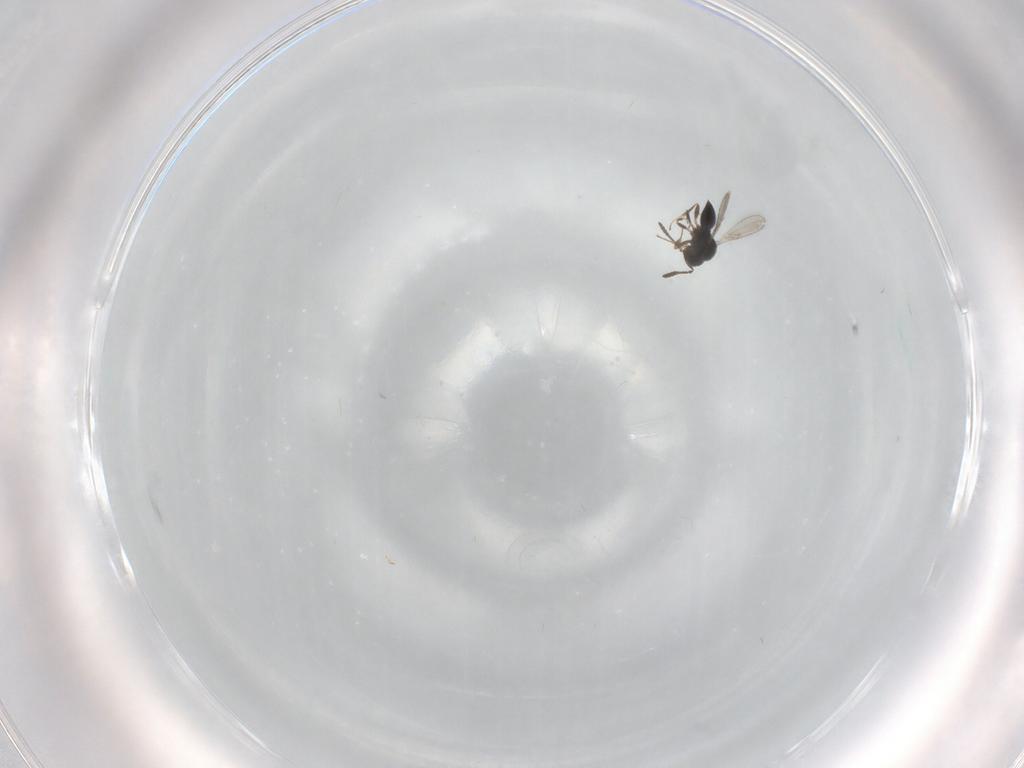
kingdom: Animalia
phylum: Arthropoda
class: Insecta
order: Hymenoptera
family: Scelionidae
